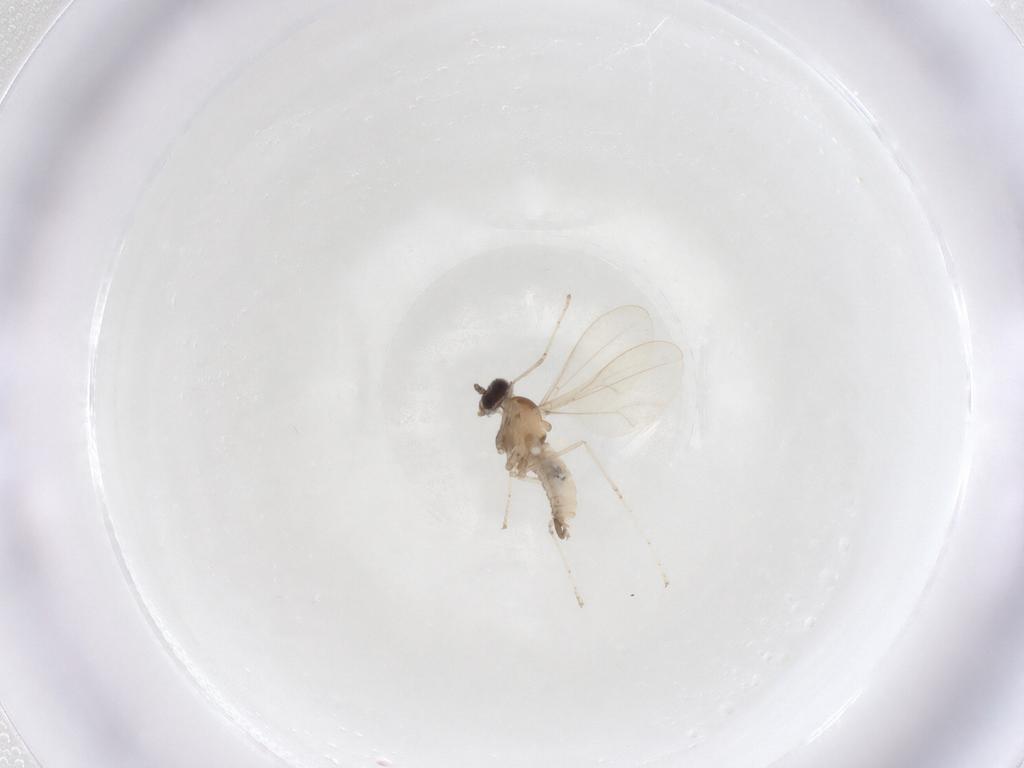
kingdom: Animalia
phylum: Arthropoda
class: Insecta
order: Diptera
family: Cecidomyiidae
